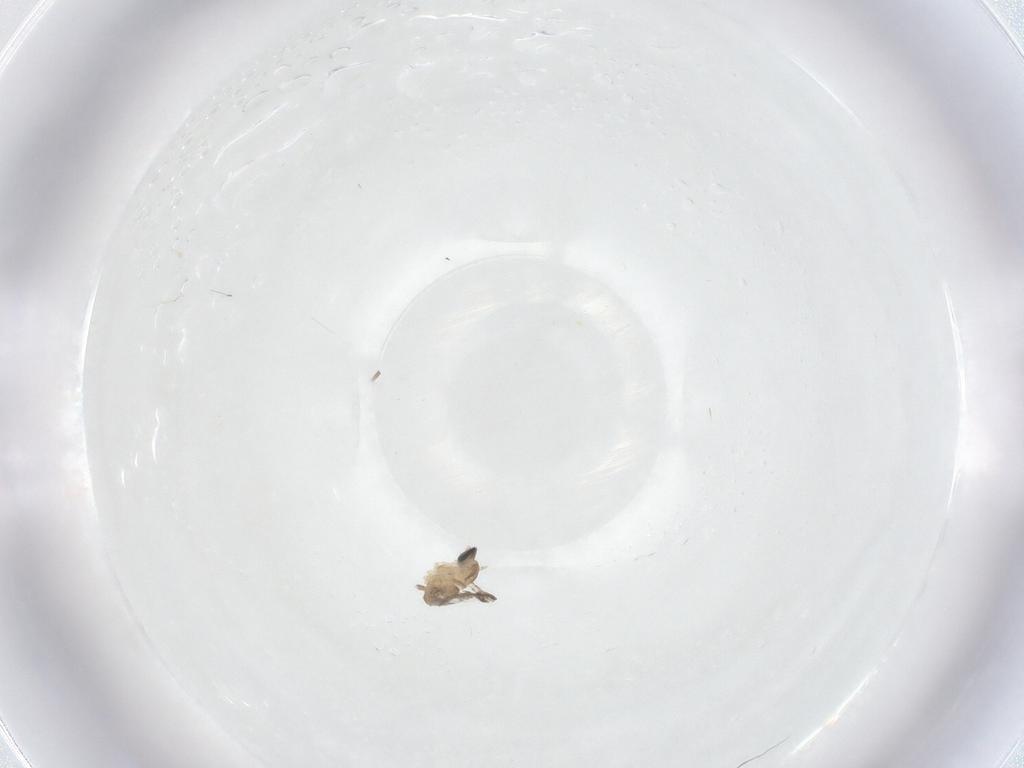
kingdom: Animalia
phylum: Arthropoda
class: Insecta
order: Diptera
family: Cecidomyiidae
